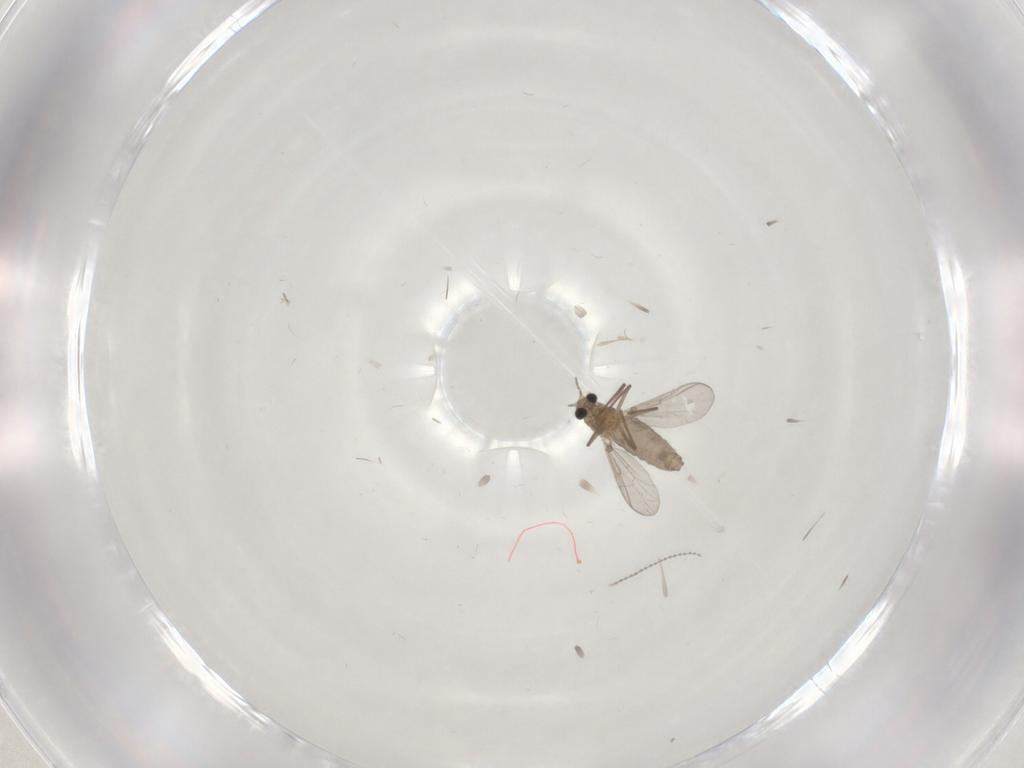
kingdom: Animalia
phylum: Arthropoda
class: Insecta
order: Diptera
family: Chironomidae
